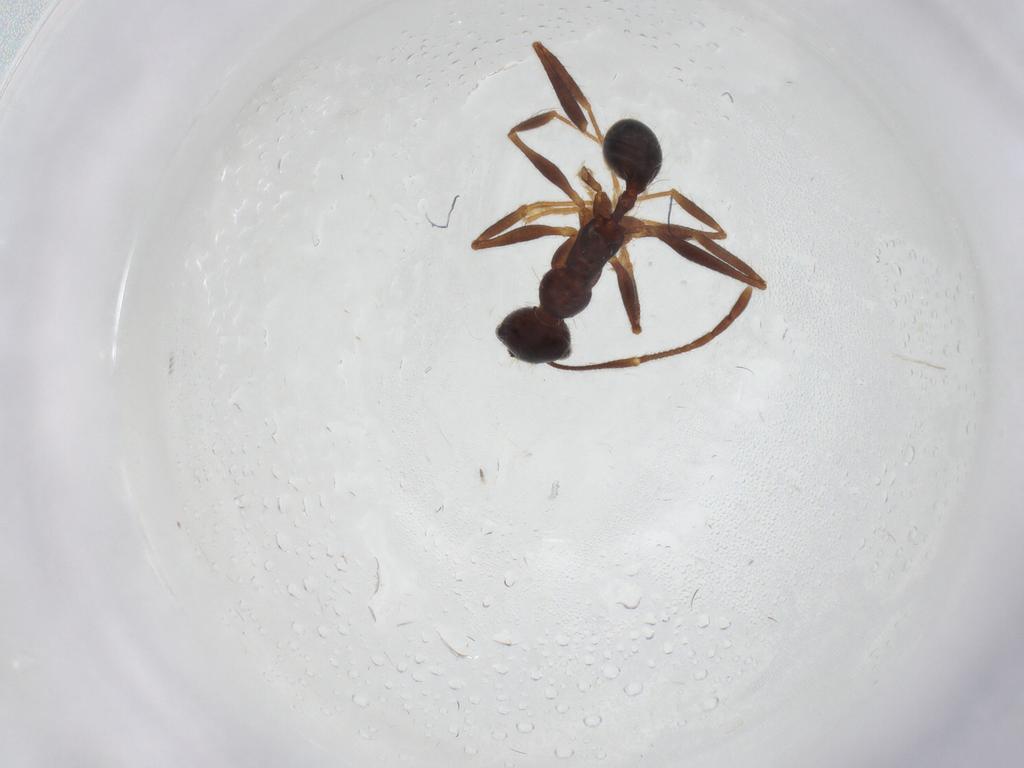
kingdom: Animalia
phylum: Arthropoda
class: Insecta
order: Hymenoptera
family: Formicidae
